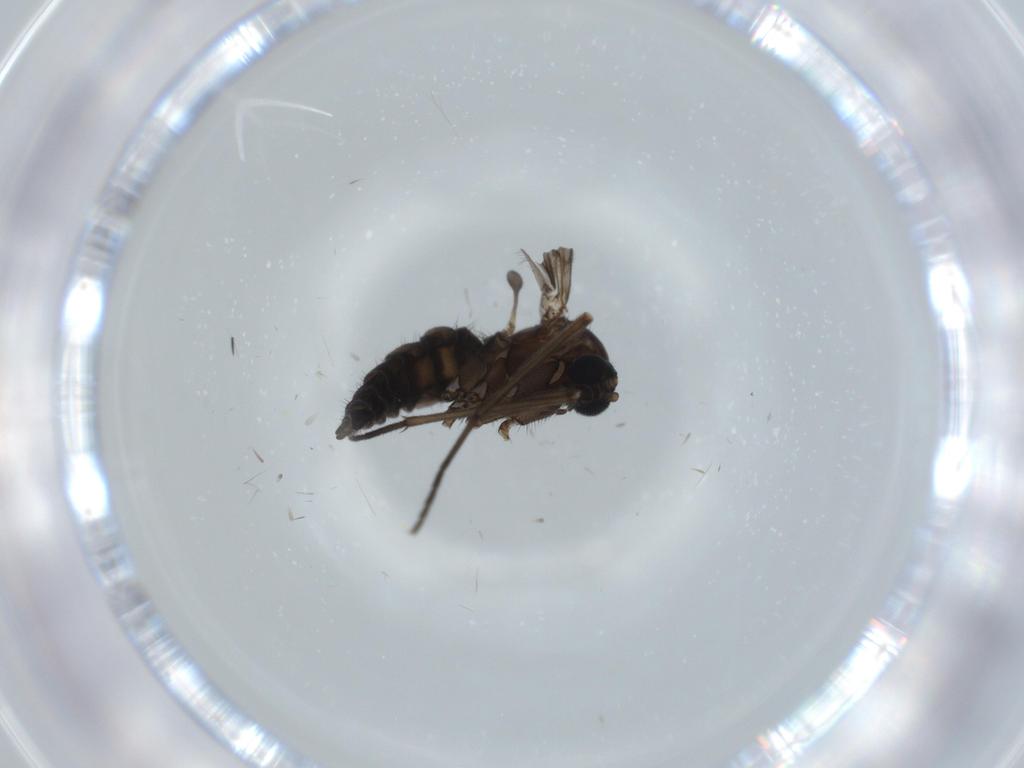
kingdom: Animalia
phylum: Arthropoda
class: Insecta
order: Diptera
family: Sciaridae
